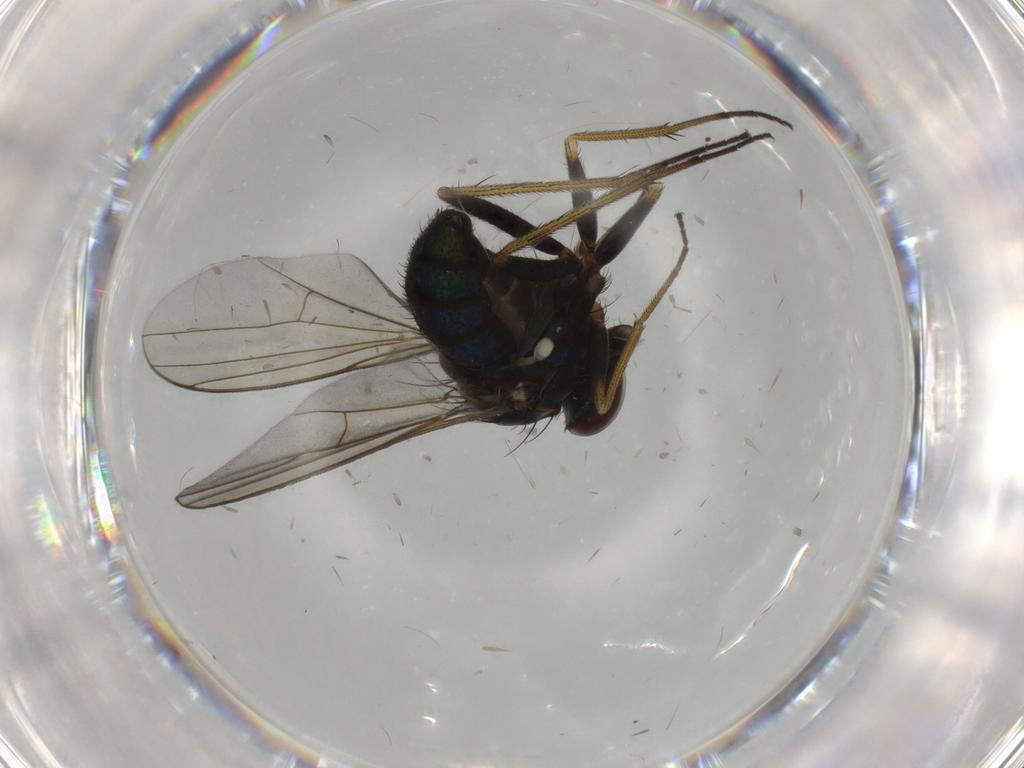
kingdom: Animalia
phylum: Arthropoda
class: Insecta
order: Diptera
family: Dolichopodidae
